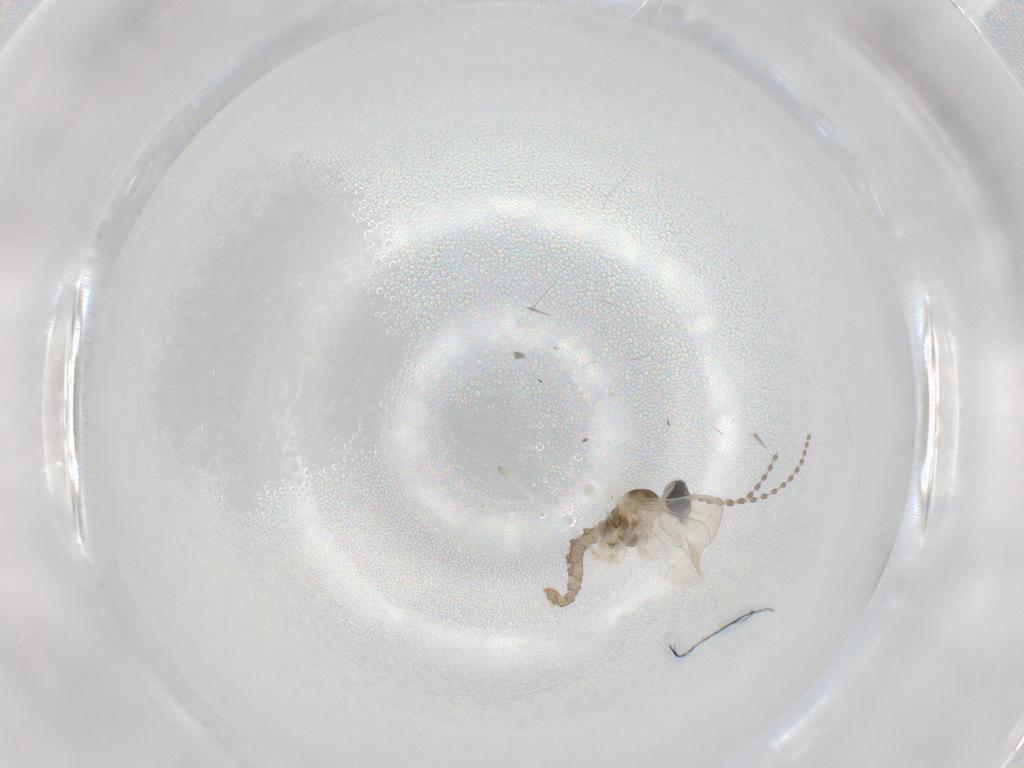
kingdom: Animalia
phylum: Arthropoda
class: Insecta
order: Diptera
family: Cecidomyiidae
